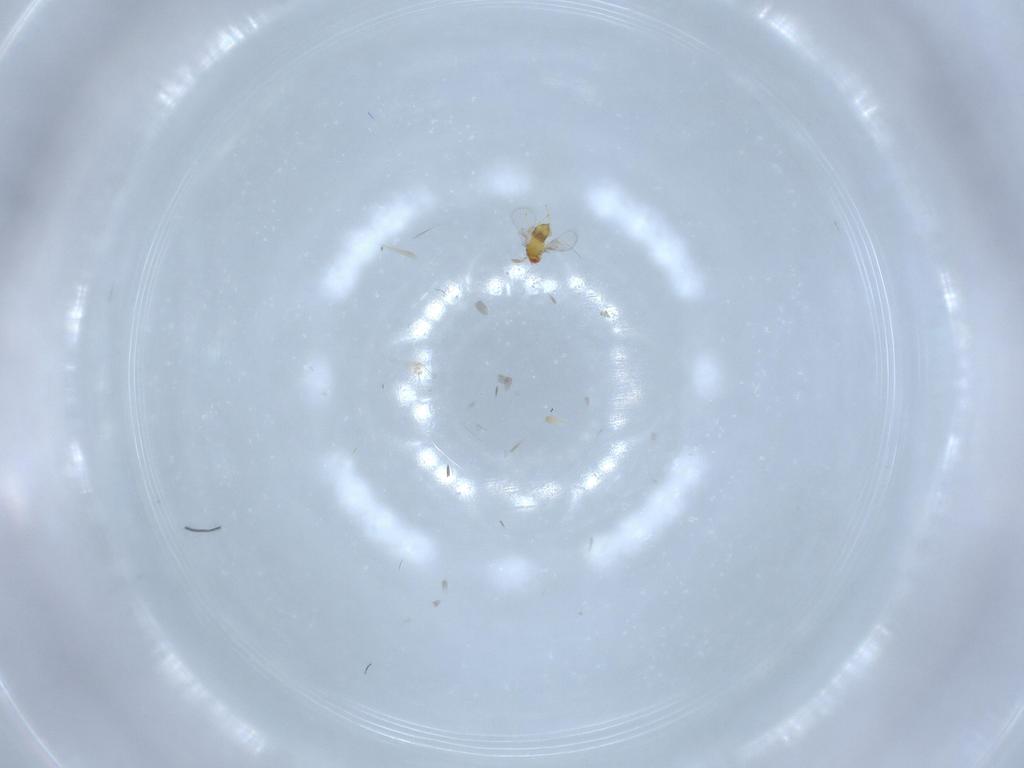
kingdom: Animalia
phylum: Arthropoda
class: Insecta
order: Hymenoptera
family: Trichogrammatidae
